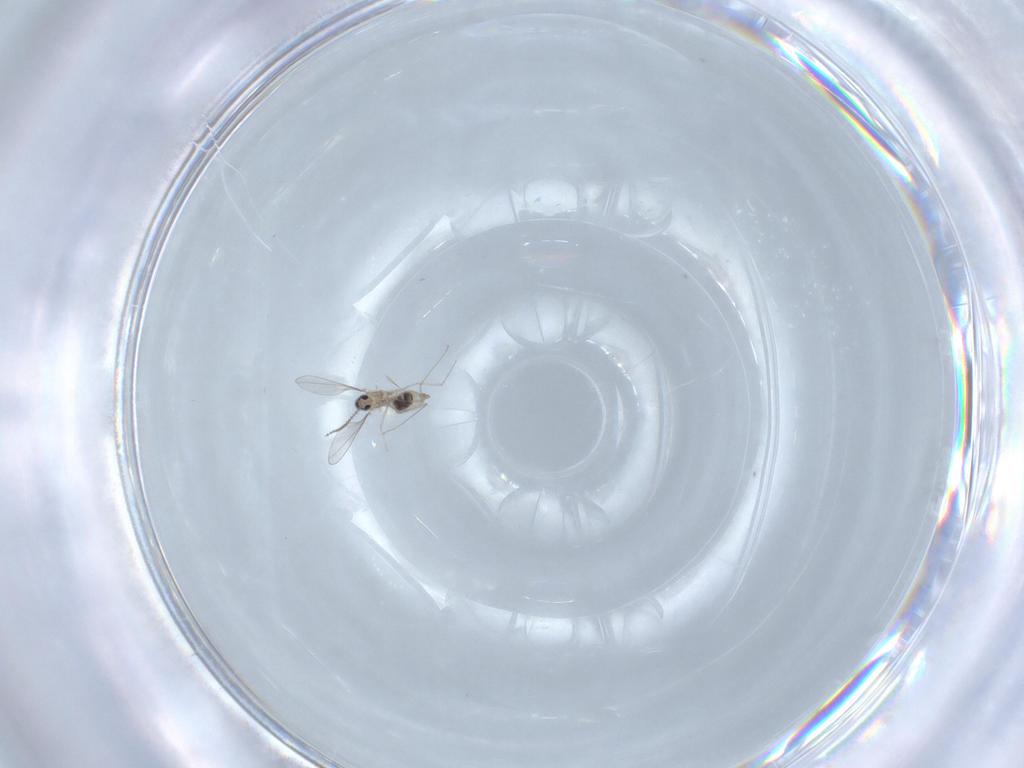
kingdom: Animalia
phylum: Arthropoda
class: Insecta
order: Diptera
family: Cecidomyiidae
